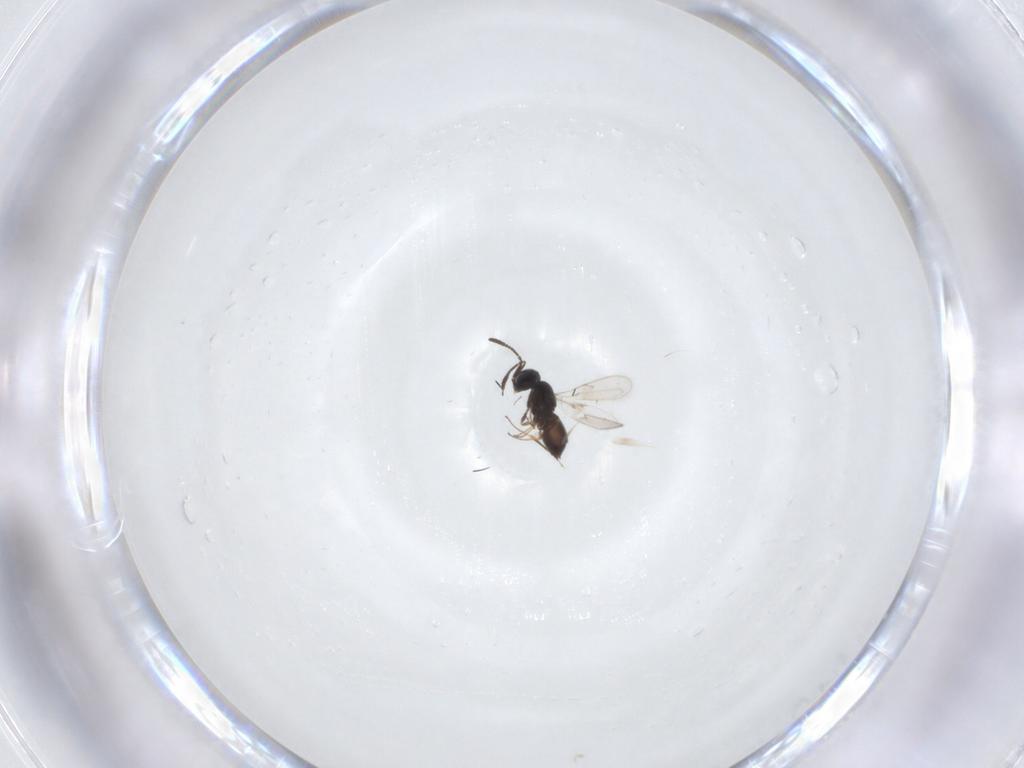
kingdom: Animalia
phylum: Arthropoda
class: Insecta
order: Hymenoptera
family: Scelionidae
